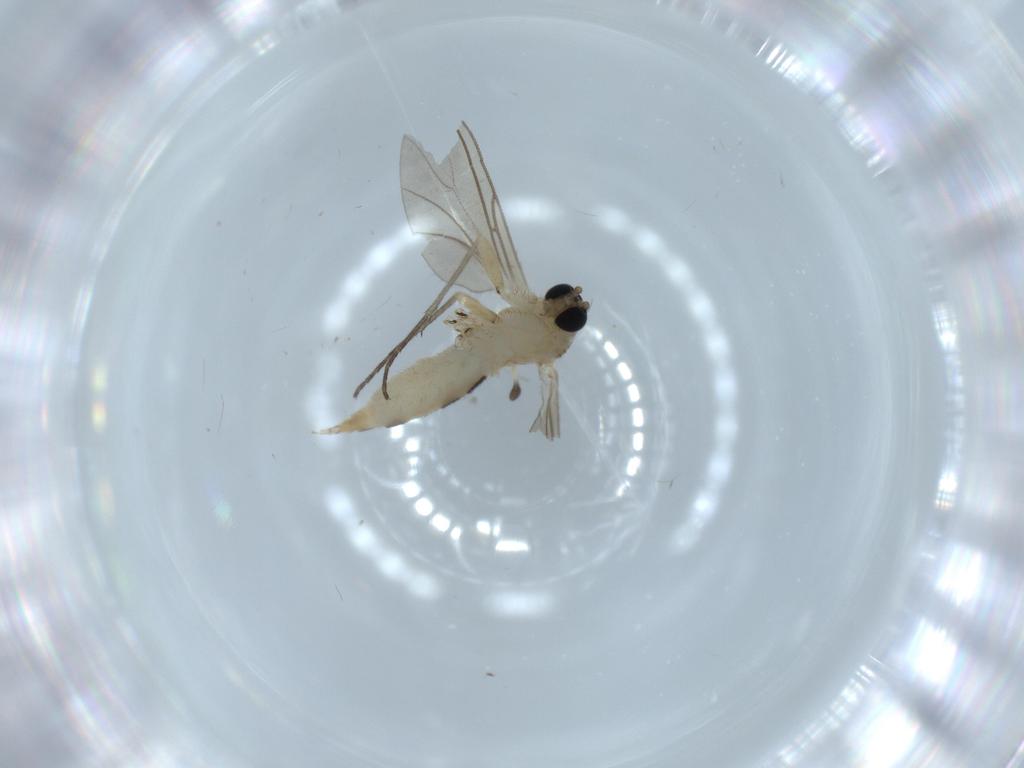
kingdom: Animalia
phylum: Arthropoda
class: Insecta
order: Diptera
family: Sciaridae
